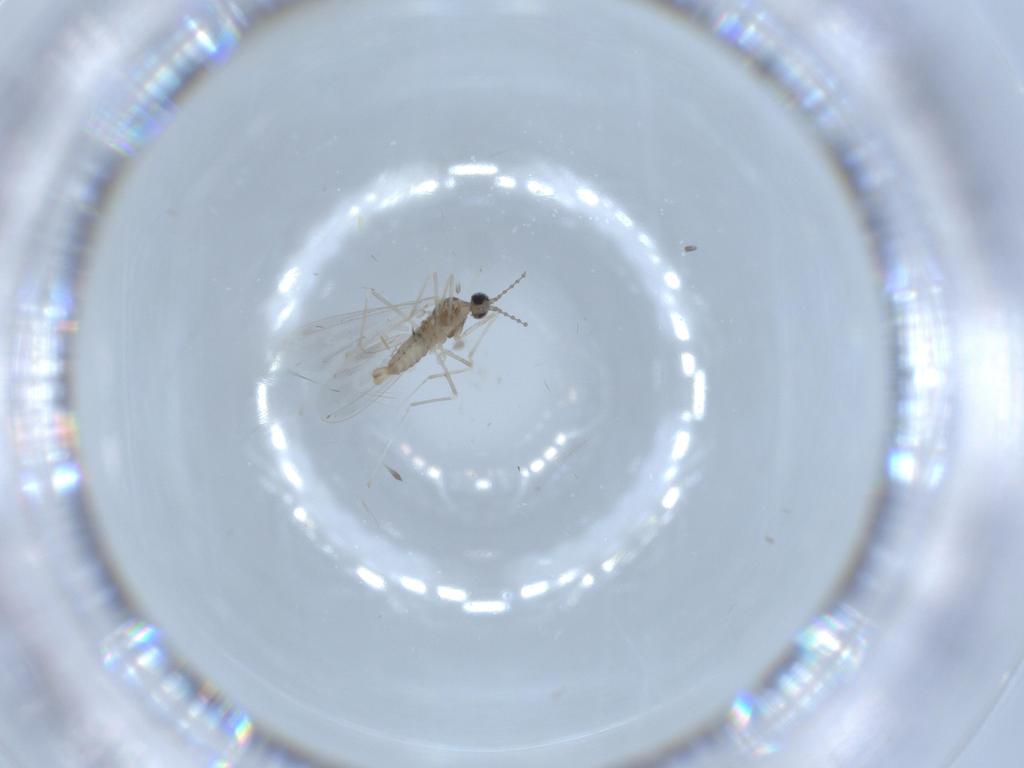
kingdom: Animalia
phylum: Arthropoda
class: Insecta
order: Diptera
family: Cecidomyiidae
